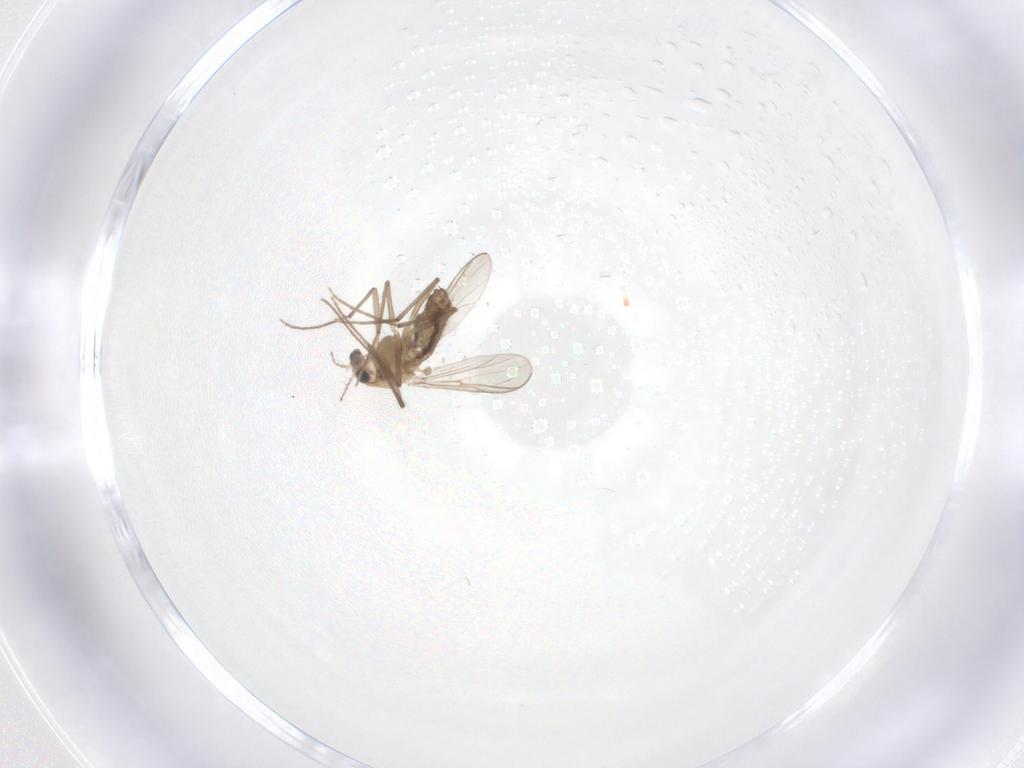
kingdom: Animalia
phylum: Arthropoda
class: Insecta
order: Diptera
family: Chironomidae
